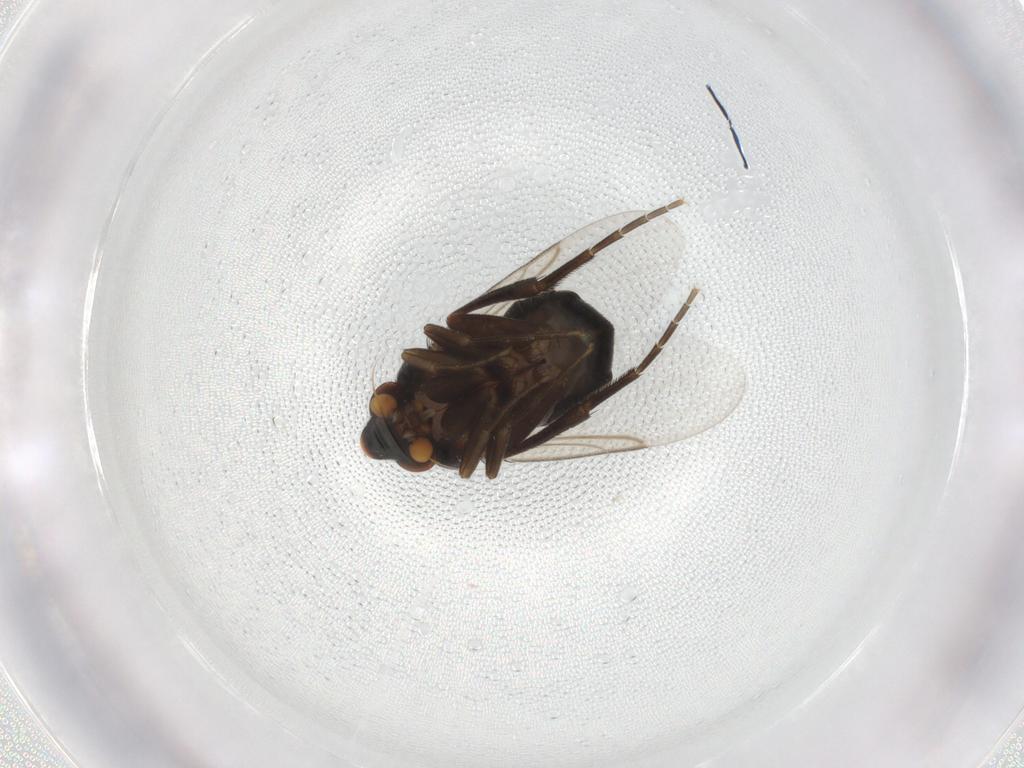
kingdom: Animalia
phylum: Arthropoda
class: Insecta
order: Diptera
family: Phoridae
